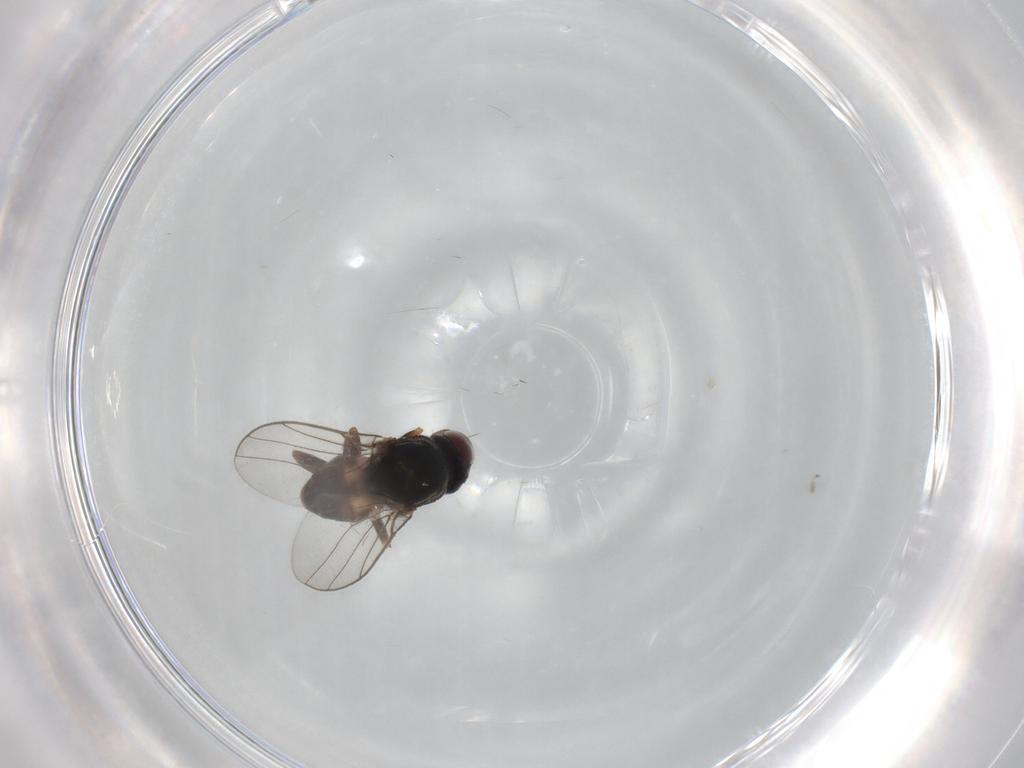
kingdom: Animalia
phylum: Arthropoda
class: Insecta
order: Diptera
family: Chloropidae
